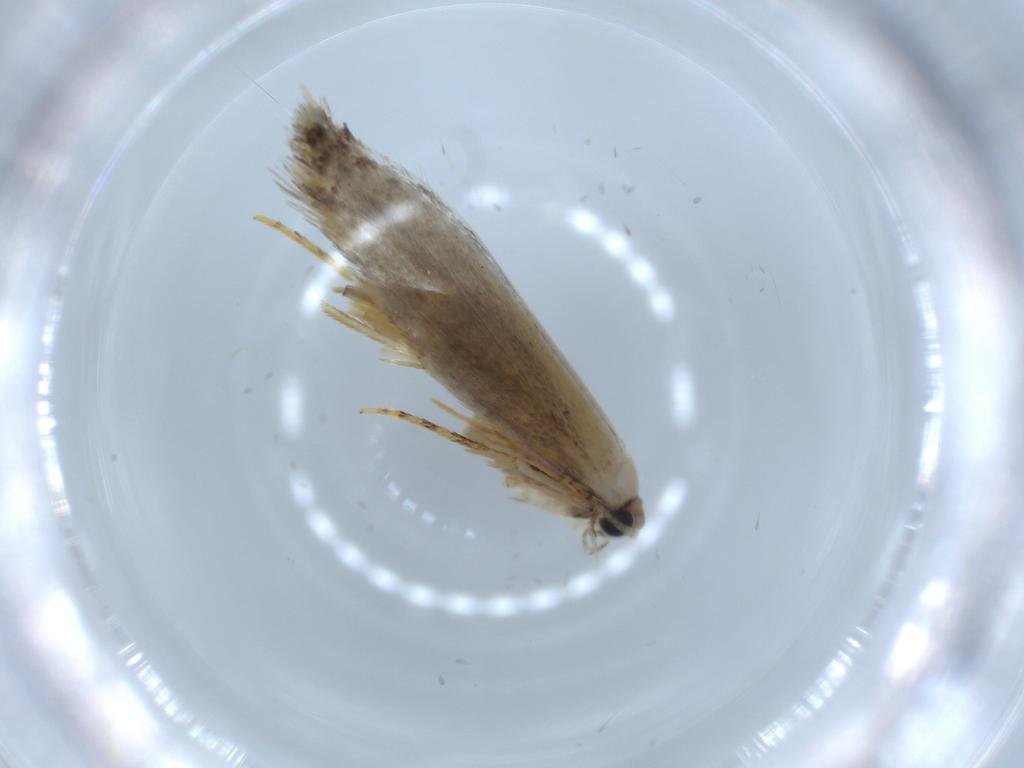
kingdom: Animalia
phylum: Arthropoda
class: Insecta
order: Lepidoptera
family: Tineidae
